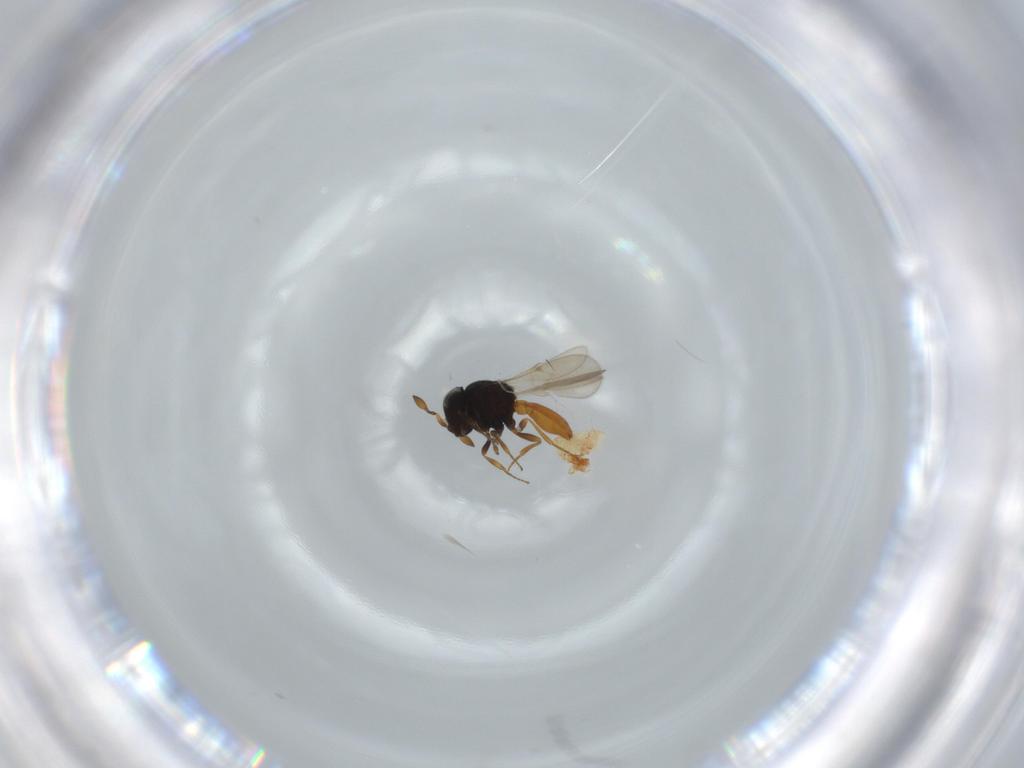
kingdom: Animalia
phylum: Arthropoda
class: Insecta
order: Hymenoptera
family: Scelionidae
